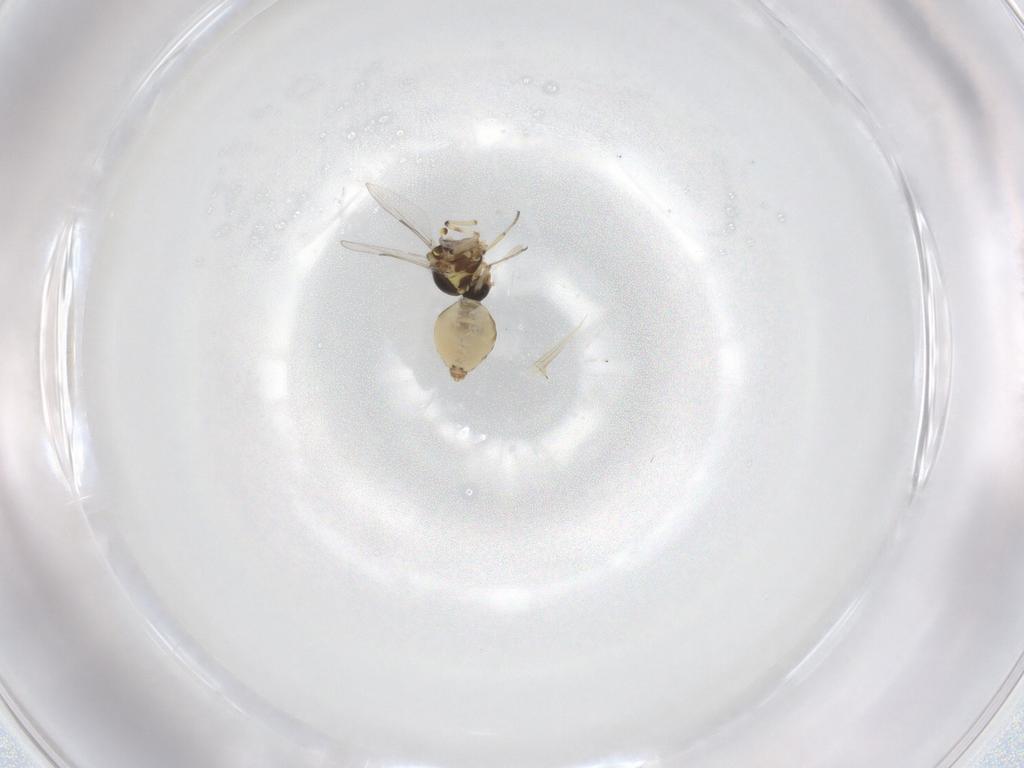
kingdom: Animalia
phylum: Arthropoda
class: Insecta
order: Diptera
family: Ceratopogonidae
